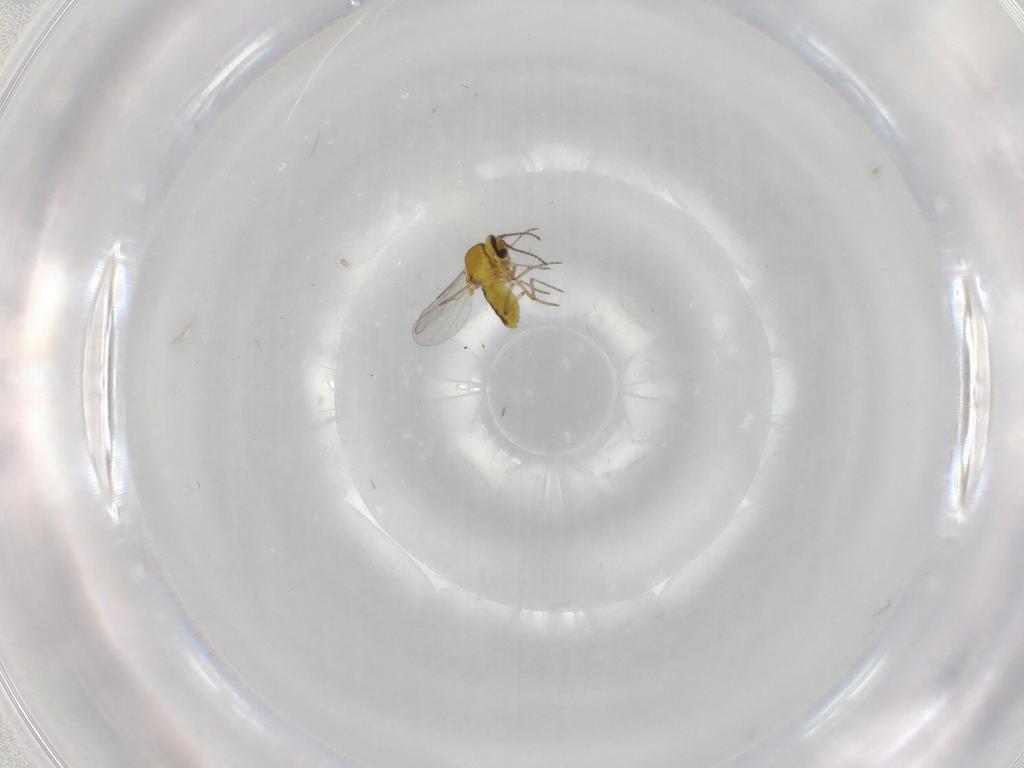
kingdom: Animalia
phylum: Arthropoda
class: Insecta
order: Diptera
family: Ceratopogonidae
